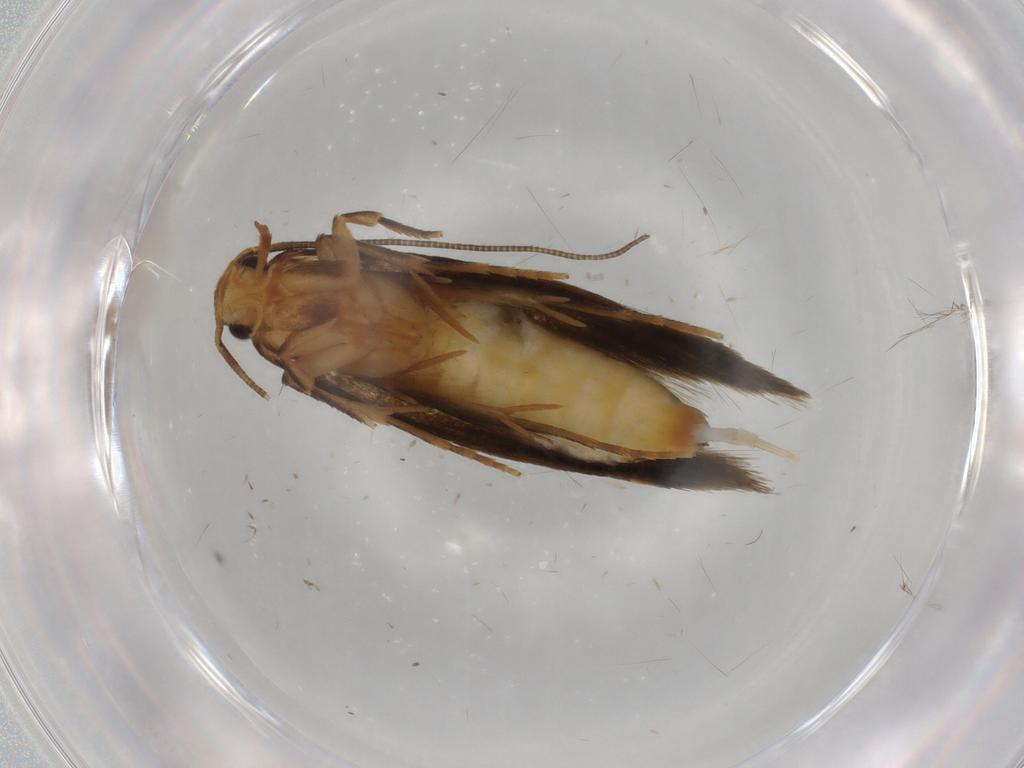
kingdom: Animalia
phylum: Arthropoda
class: Insecta
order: Lepidoptera
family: Tineidae
